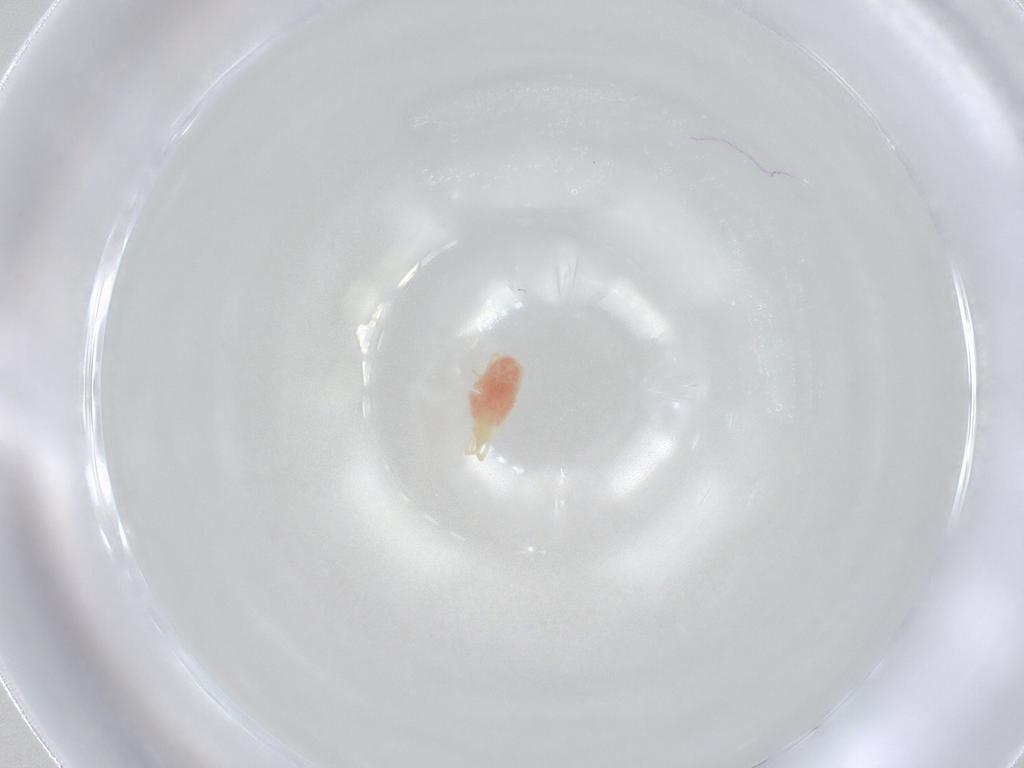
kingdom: Animalia
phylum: Arthropoda
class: Arachnida
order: Trombidiformes
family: Erythraeidae
